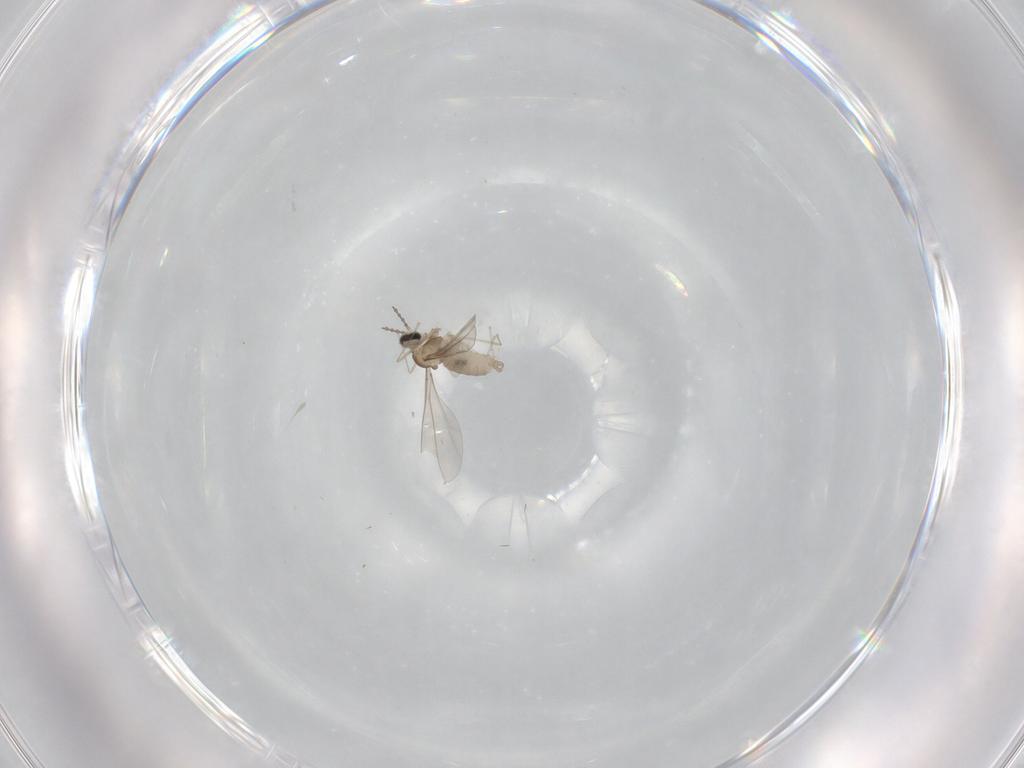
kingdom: Animalia
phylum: Arthropoda
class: Insecta
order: Diptera
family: Cecidomyiidae
